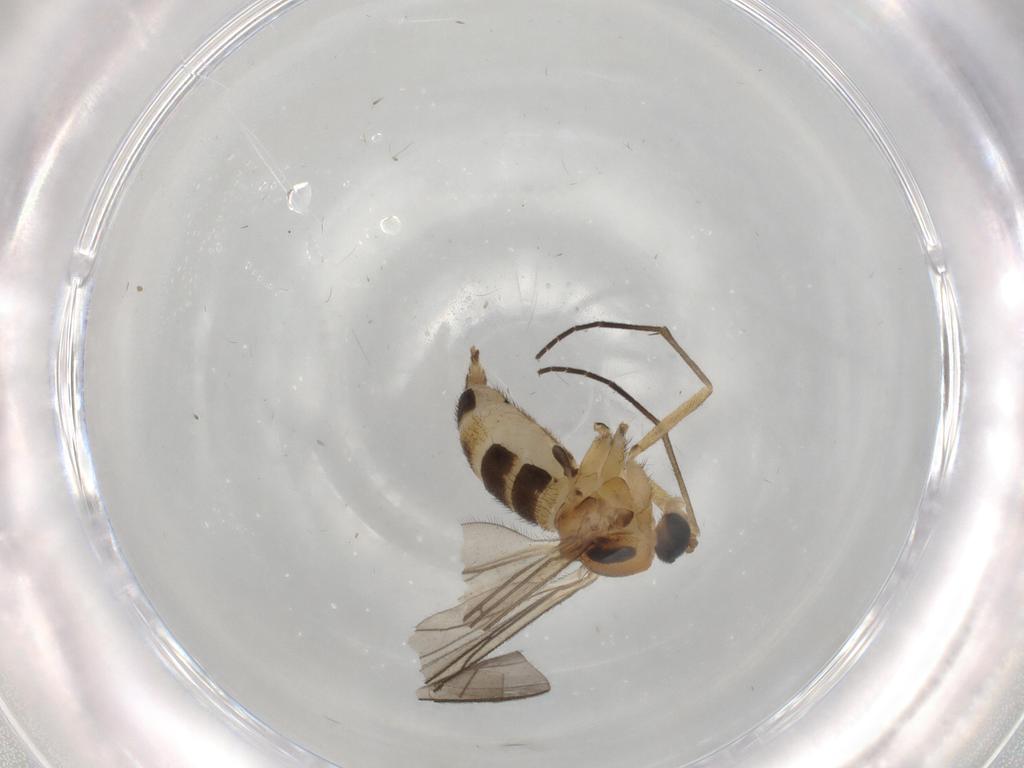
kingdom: Animalia
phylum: Arthropoda
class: Insecta
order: Diptera
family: Sciaridae
